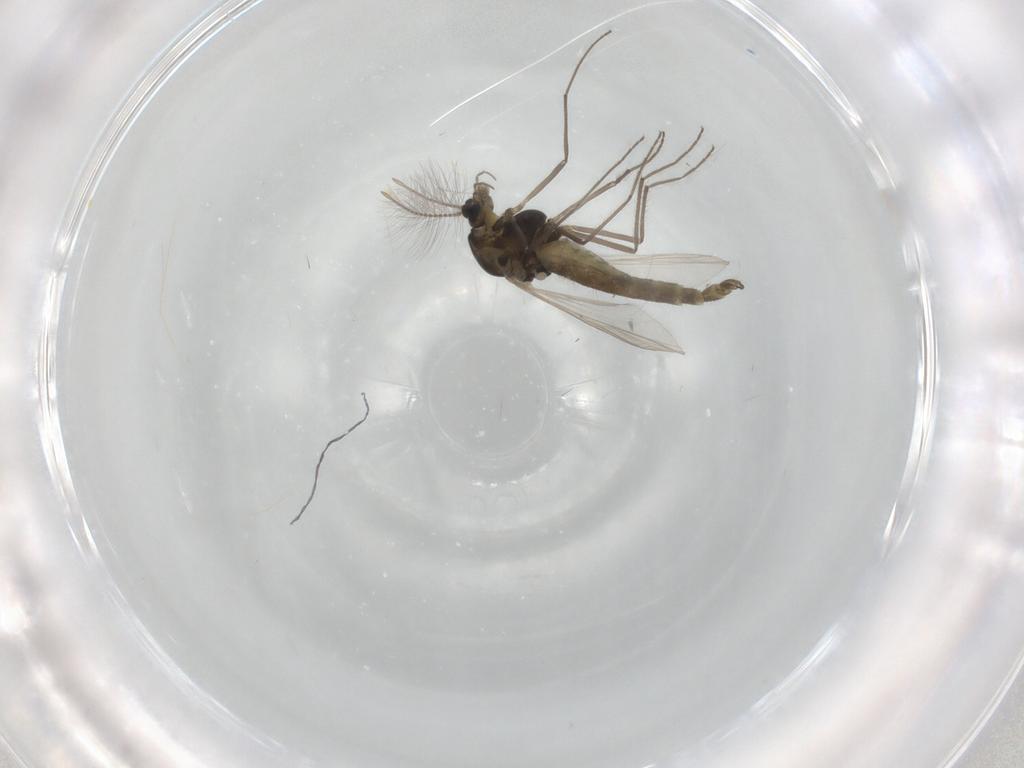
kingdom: Animalia
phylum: Arthropoda
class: Insecta
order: Diptera
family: Chironomidae
